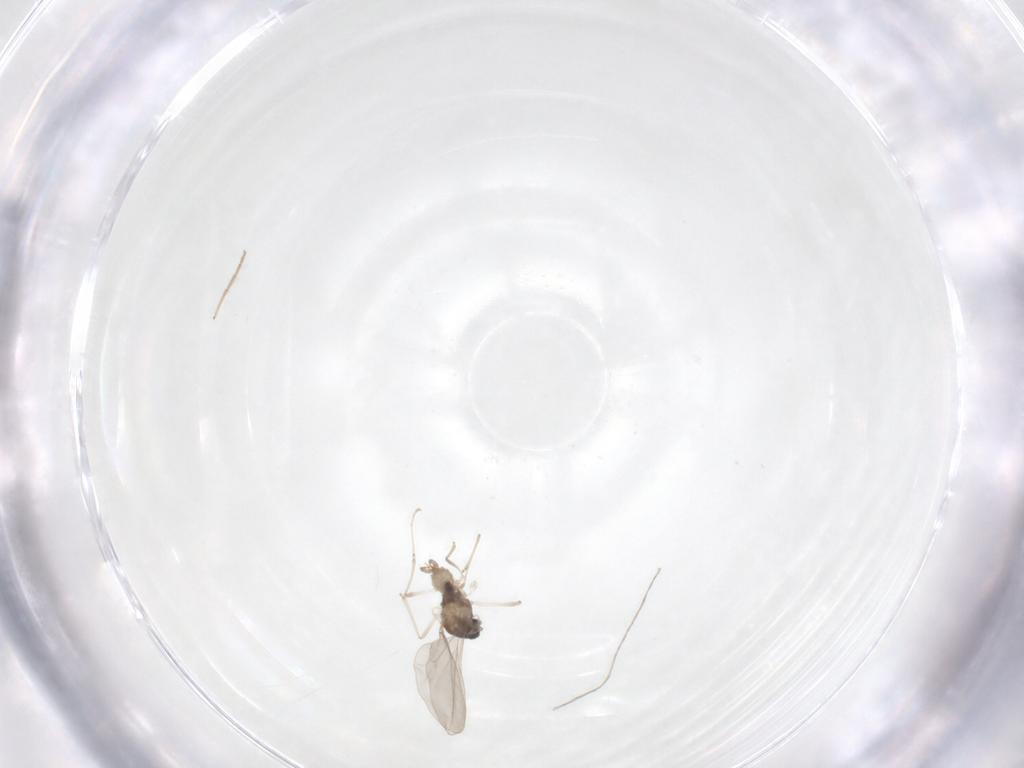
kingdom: Animalia
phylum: Arthropoda
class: Insecta
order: Diptera
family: Chironomidae
